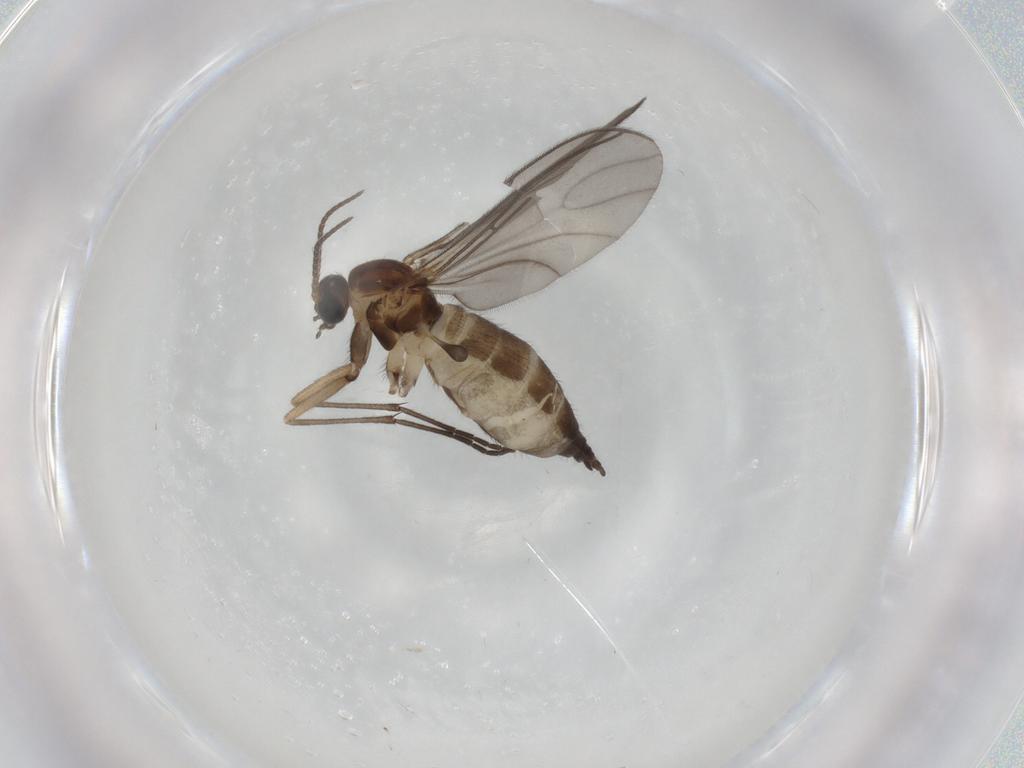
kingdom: Animalia
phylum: Arthropoda
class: Insecta
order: Diptera
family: Sciaridae
